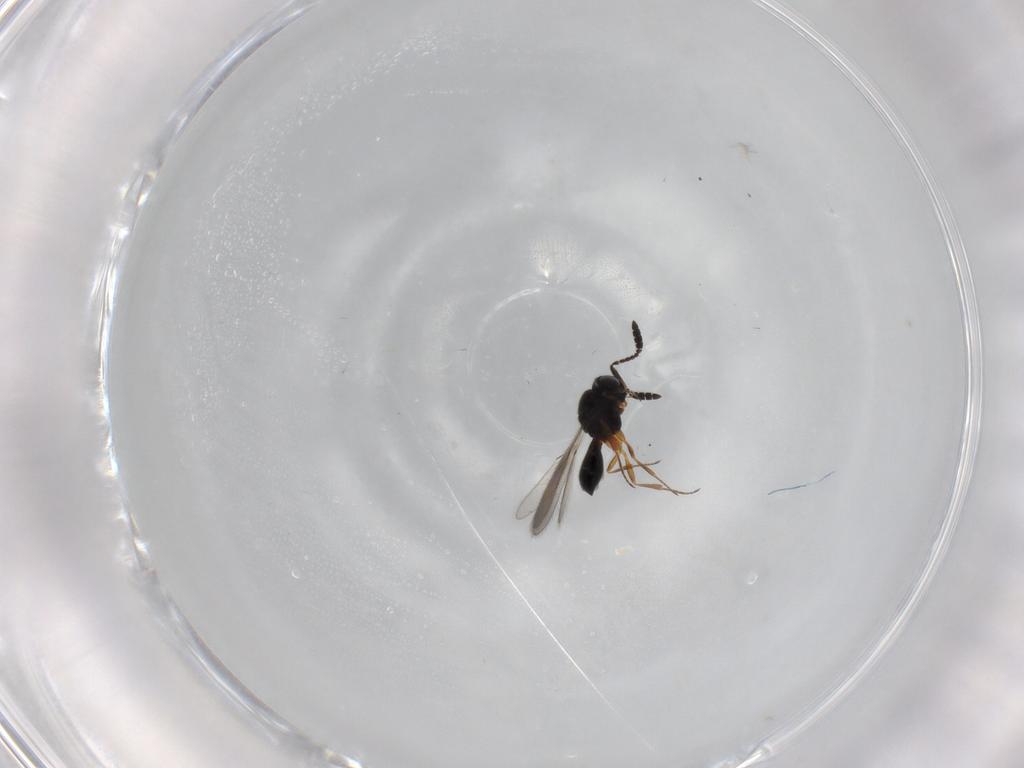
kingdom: Animalia
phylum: Arthropoda
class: Insecta
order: Hymenoptera
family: Scelionidae
